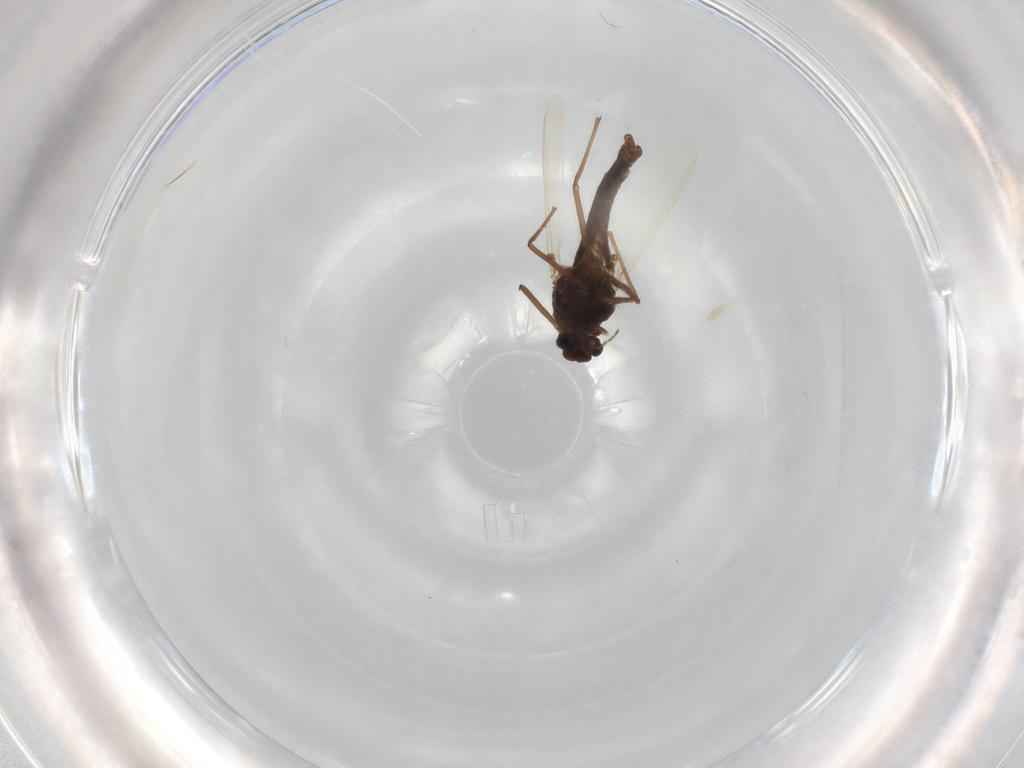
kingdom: Animalia
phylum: Arthropoda
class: Insecta
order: Diptera
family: Chironomidae
